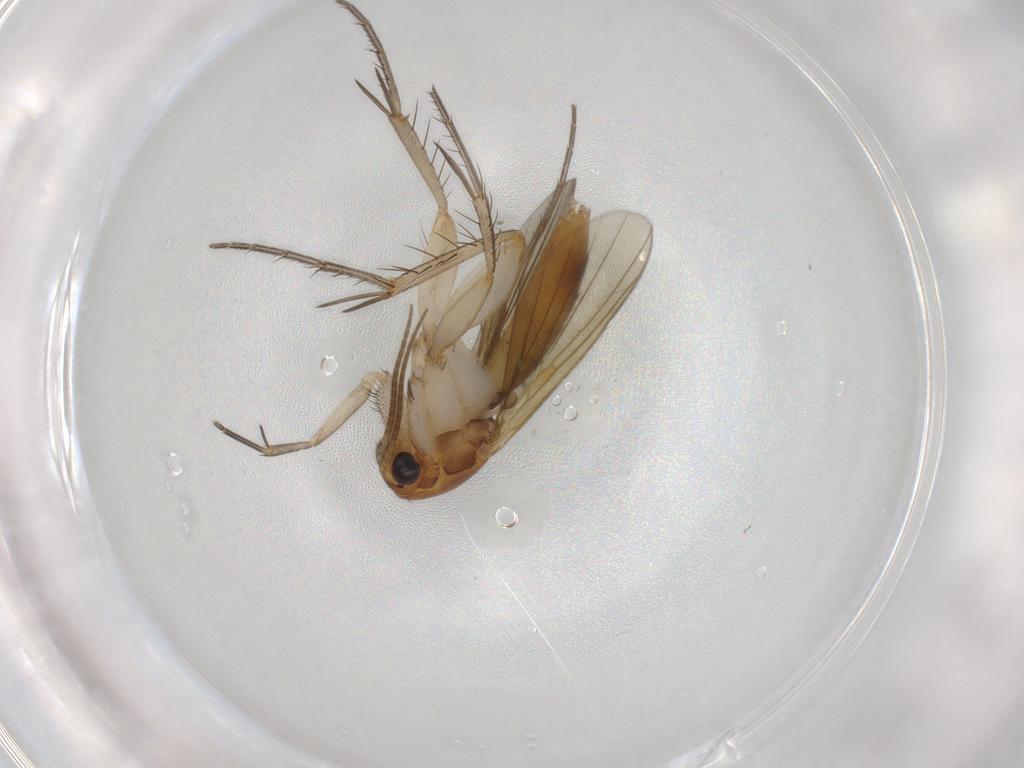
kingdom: Animalia
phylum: Arthropoda
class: Insecta
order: Diptera
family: Mycetophilidae
